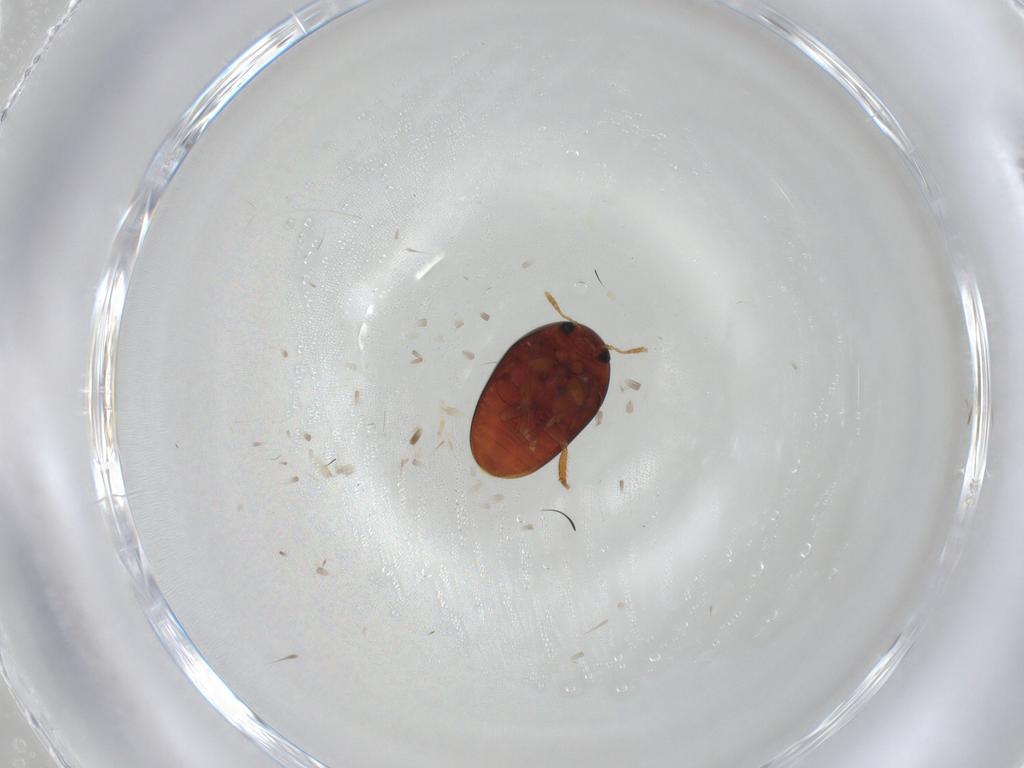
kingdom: Animalia
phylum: Arthropoda
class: Insecta
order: Coleoptera
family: Phalacridae
